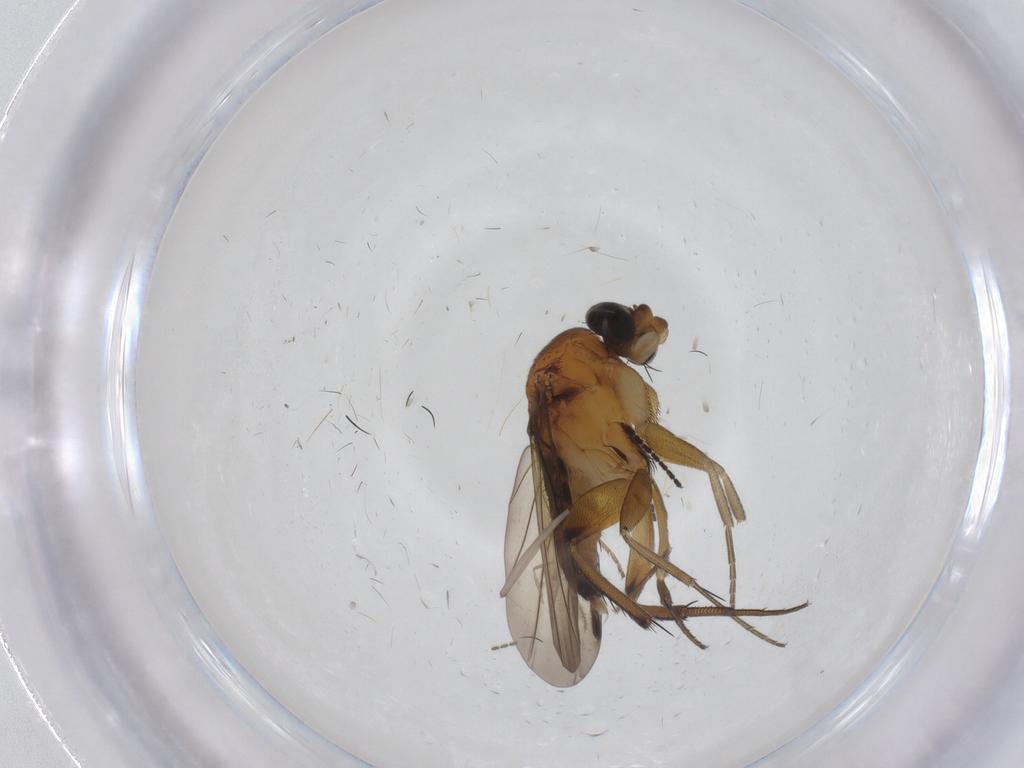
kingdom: Animalia
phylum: Arthropoda
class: Insecta
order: Diptera
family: Phoridae
